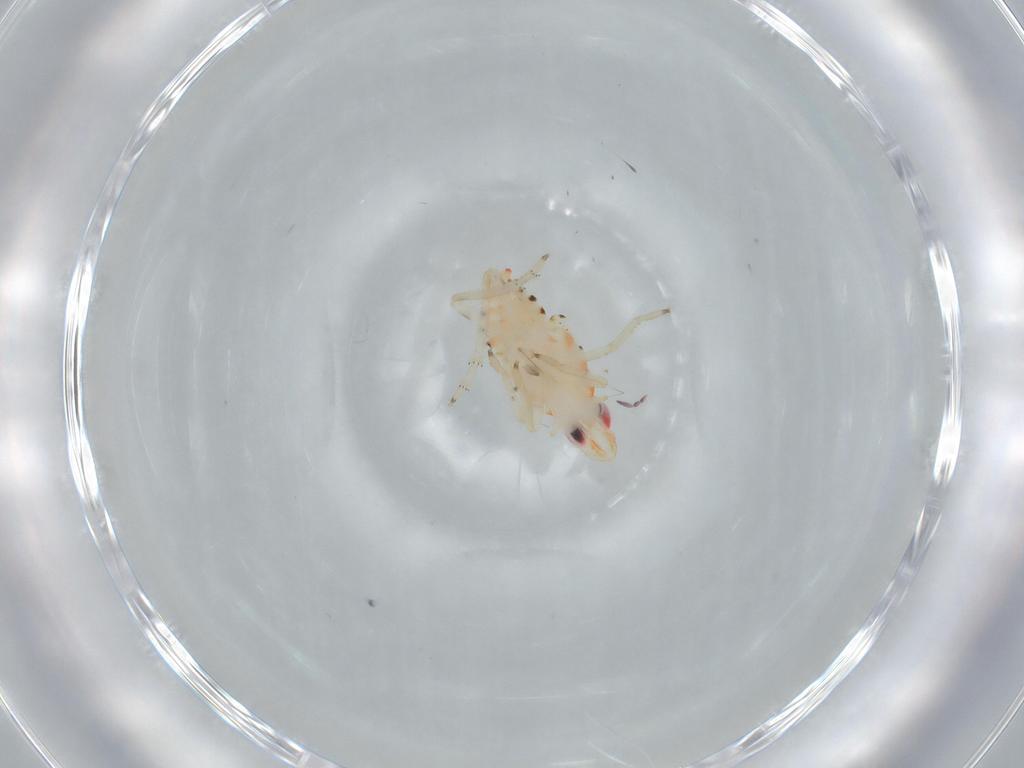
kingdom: Animalia
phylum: Arthropoda
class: Insecta
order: Hemiptera
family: Tropiduchidae
